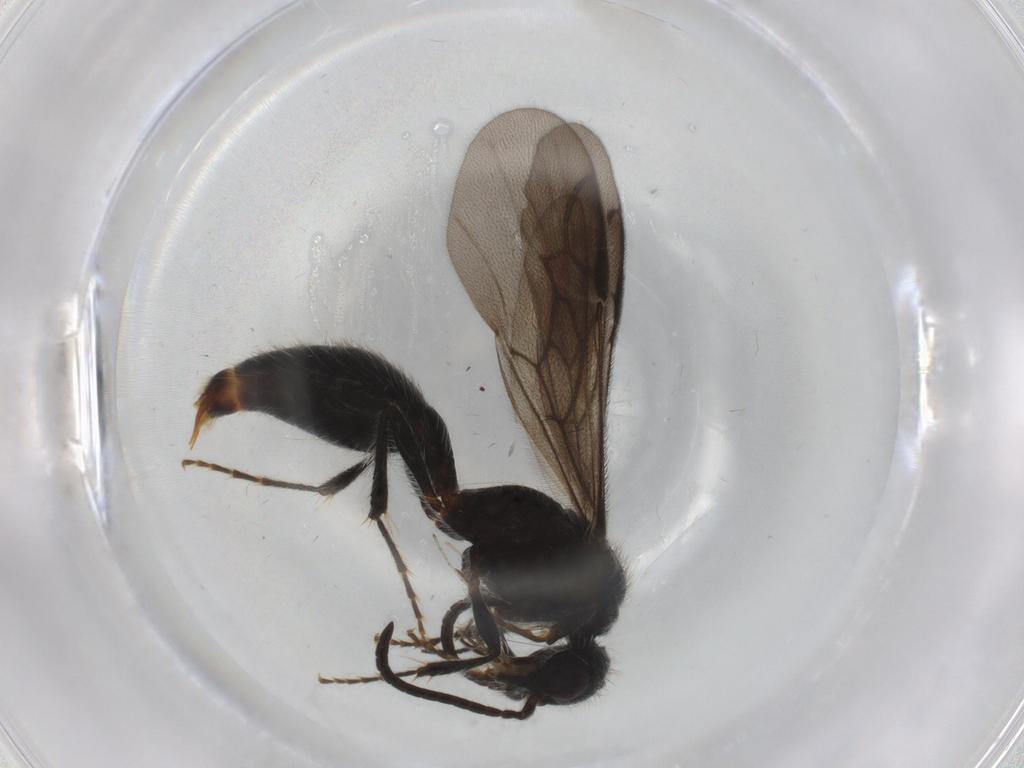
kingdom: Animalia
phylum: Arthropoda
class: Insecta
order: Hymenoptera
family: Mutillidae
